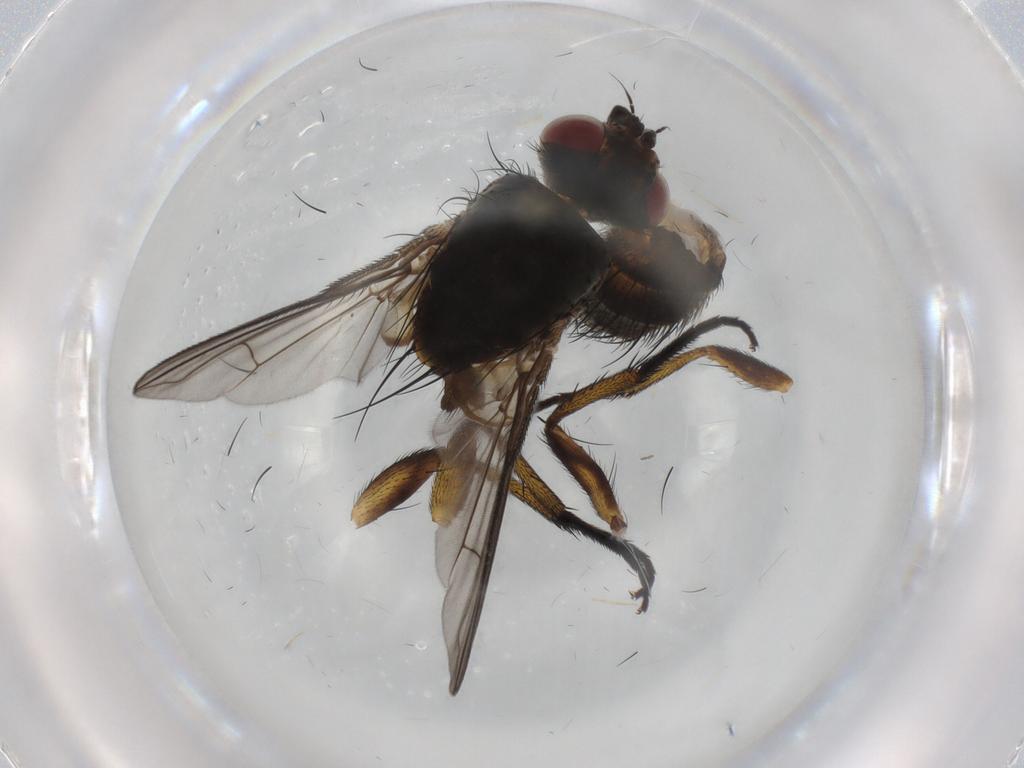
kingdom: Animalia
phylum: Arthropoda
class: Insecta
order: Diptera
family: Tachinidae
